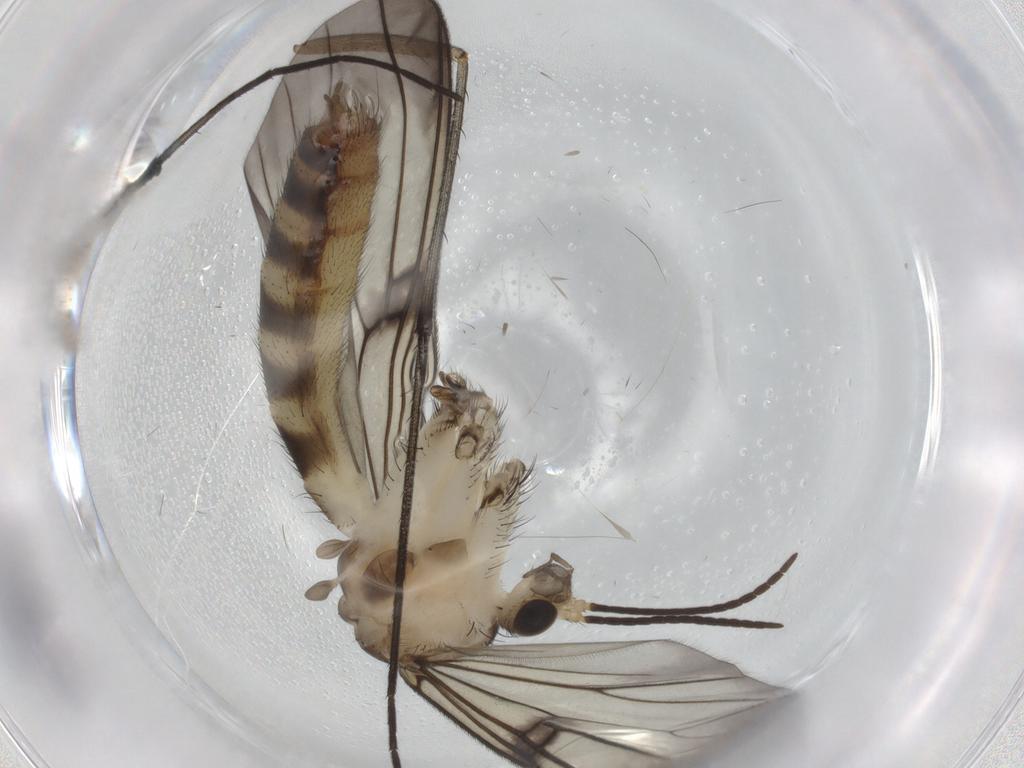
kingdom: Animalia
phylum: Arthropoda
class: Insecta
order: Diptera
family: Mycetophilidae
